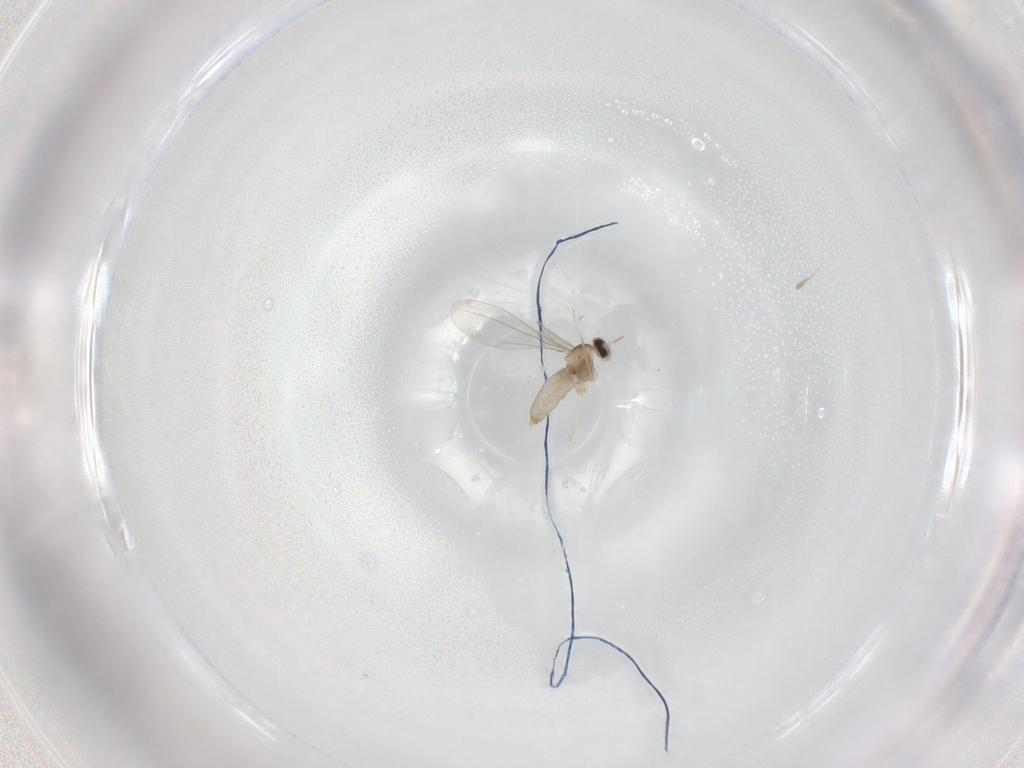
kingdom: Animalia
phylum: Arthropoda
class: Insecta
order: Diptera
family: Cecidomyiidae
